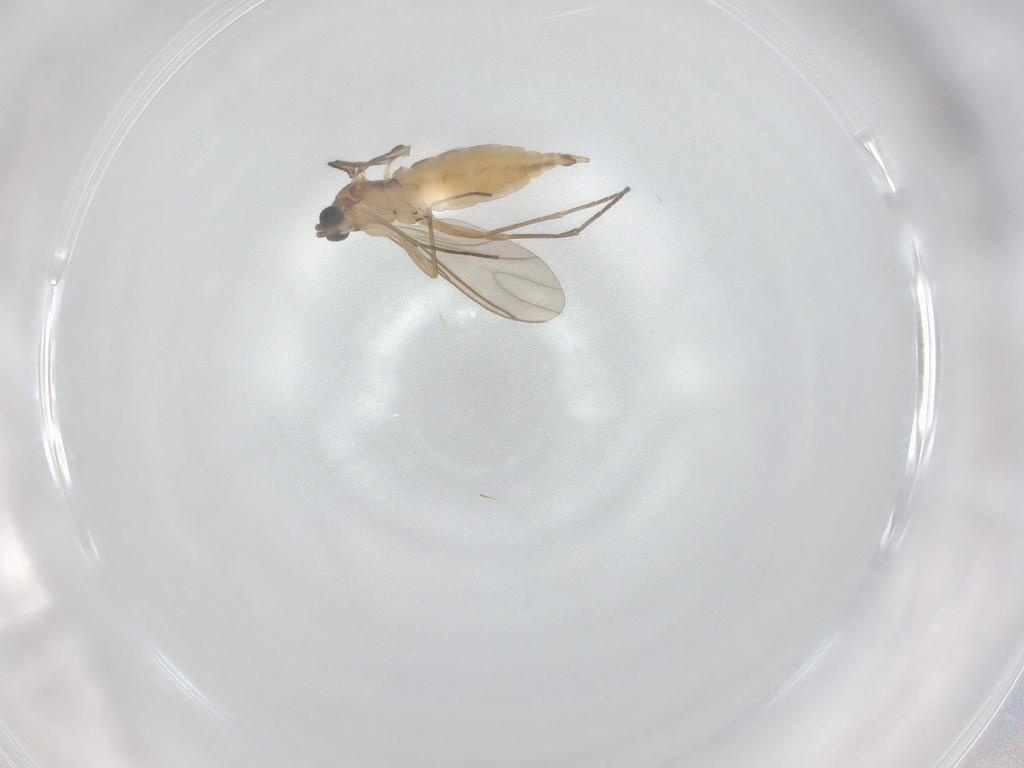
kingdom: Animalia
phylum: Arthropoda
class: Insecta
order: Diptera
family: Sciaridae
